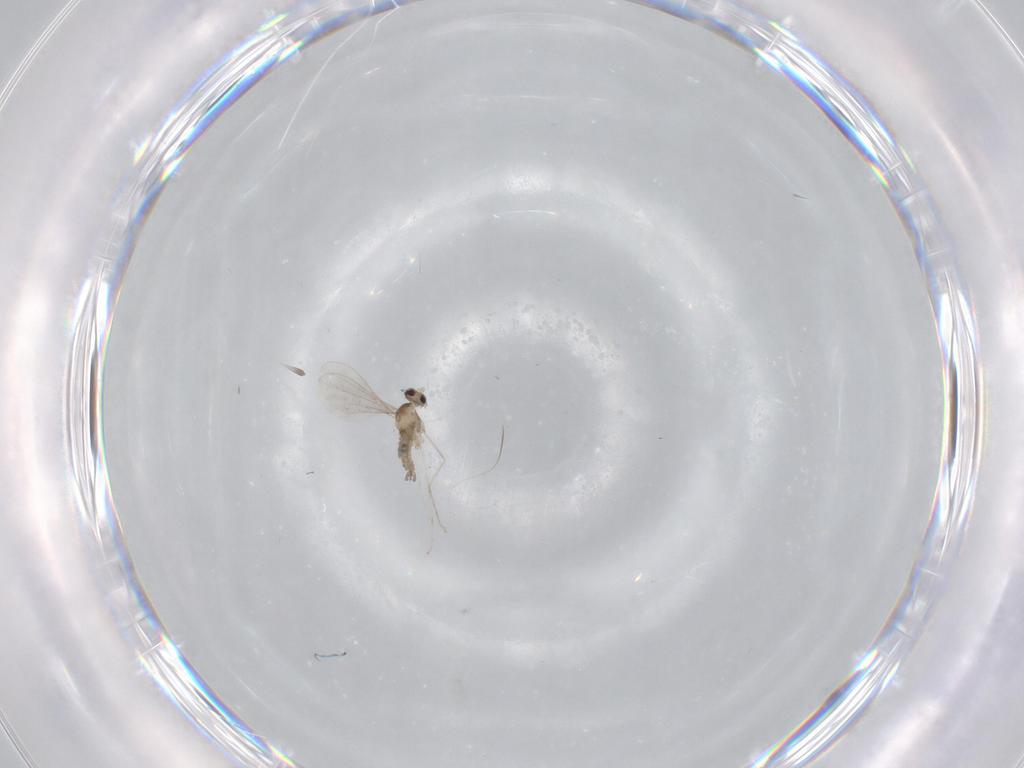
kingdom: Animalia
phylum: Arthropoda
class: Insecta
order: Diptera
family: Cecidomyiidae
